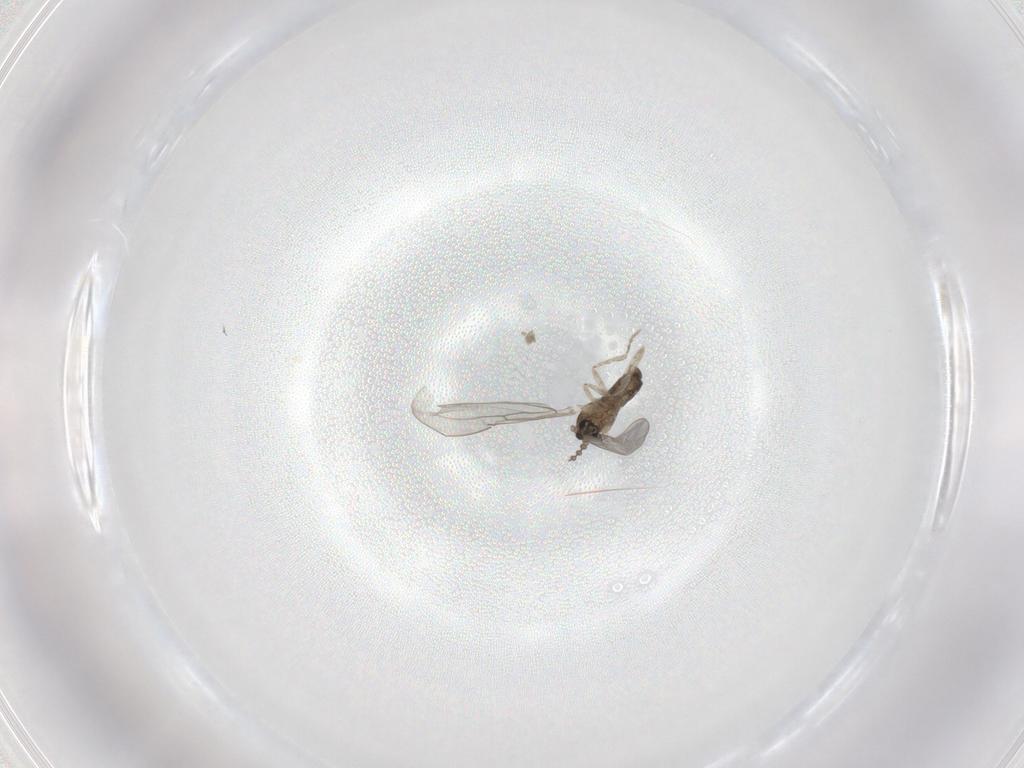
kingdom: Animalia
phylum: Arthropoda
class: Insecta
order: Diptera
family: Cecidomyiidae
